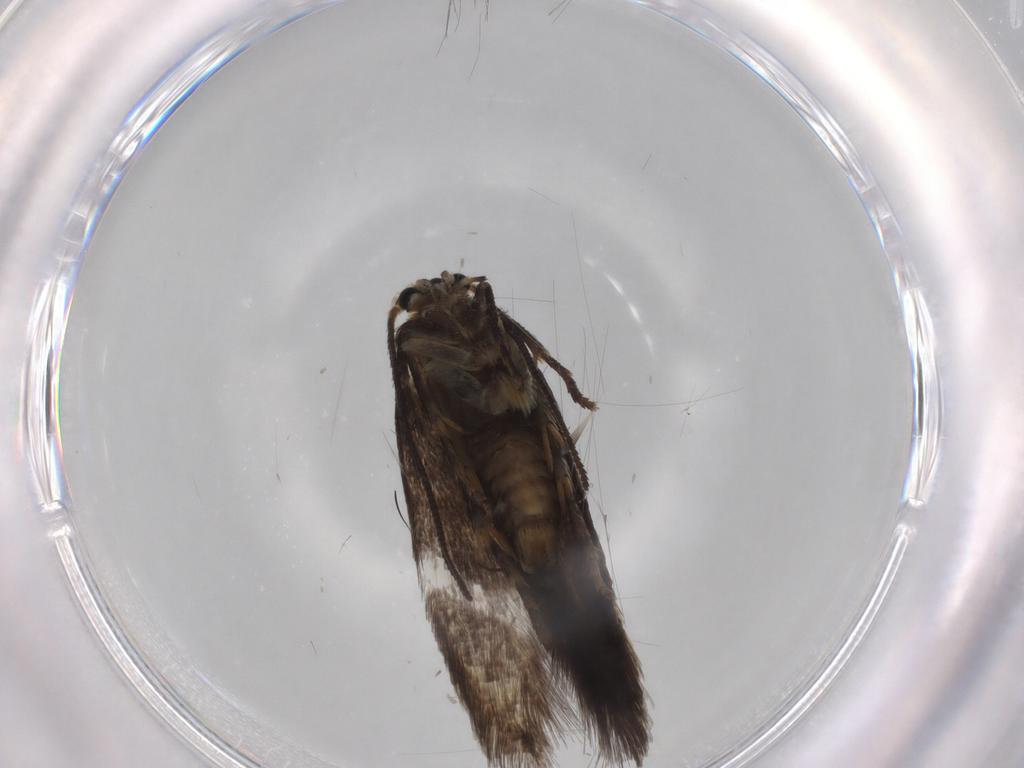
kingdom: Animalia
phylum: Arthropoda
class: Insecta
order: Lepidoptera
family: Nepticulidae
